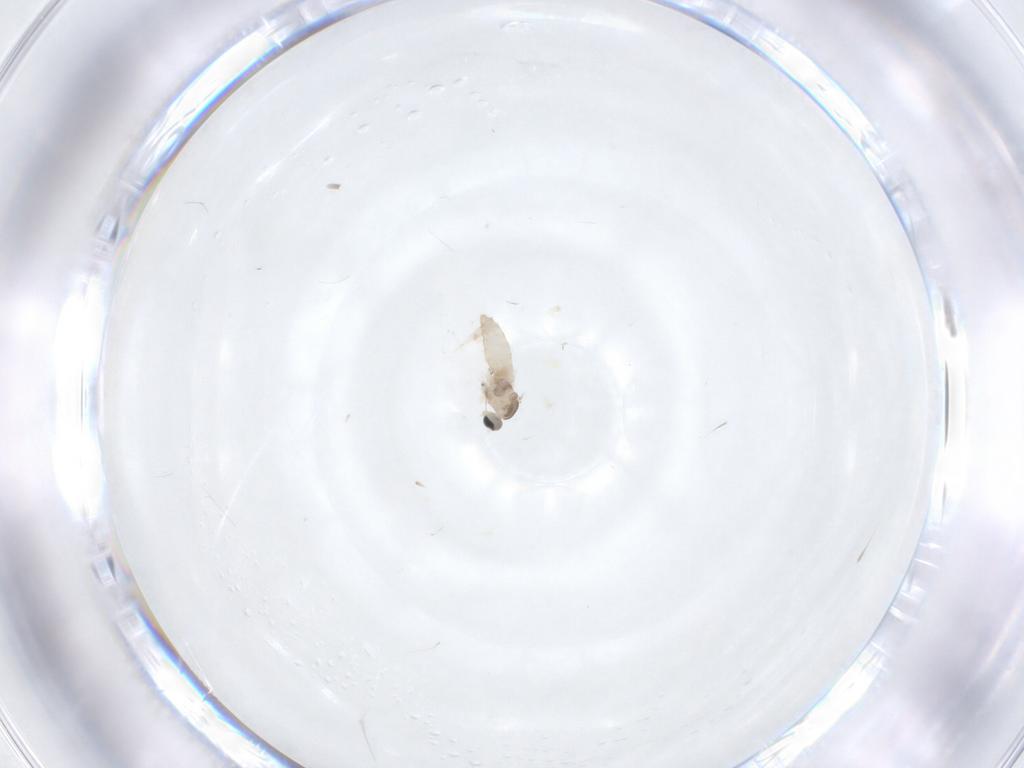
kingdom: Animalia
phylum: Arthropoda
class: Insecta
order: Diptera
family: Cecidomyiidae
